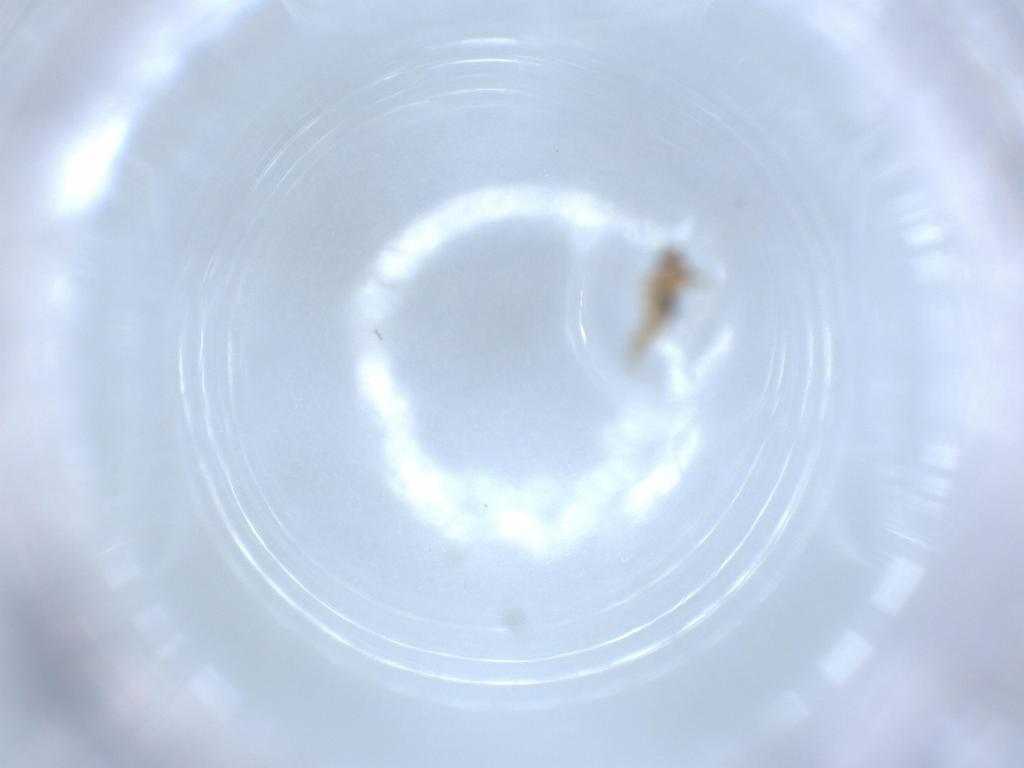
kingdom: Animalia
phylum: Arthropoda
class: Insecta
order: Diptera
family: Cecidomyiidae
